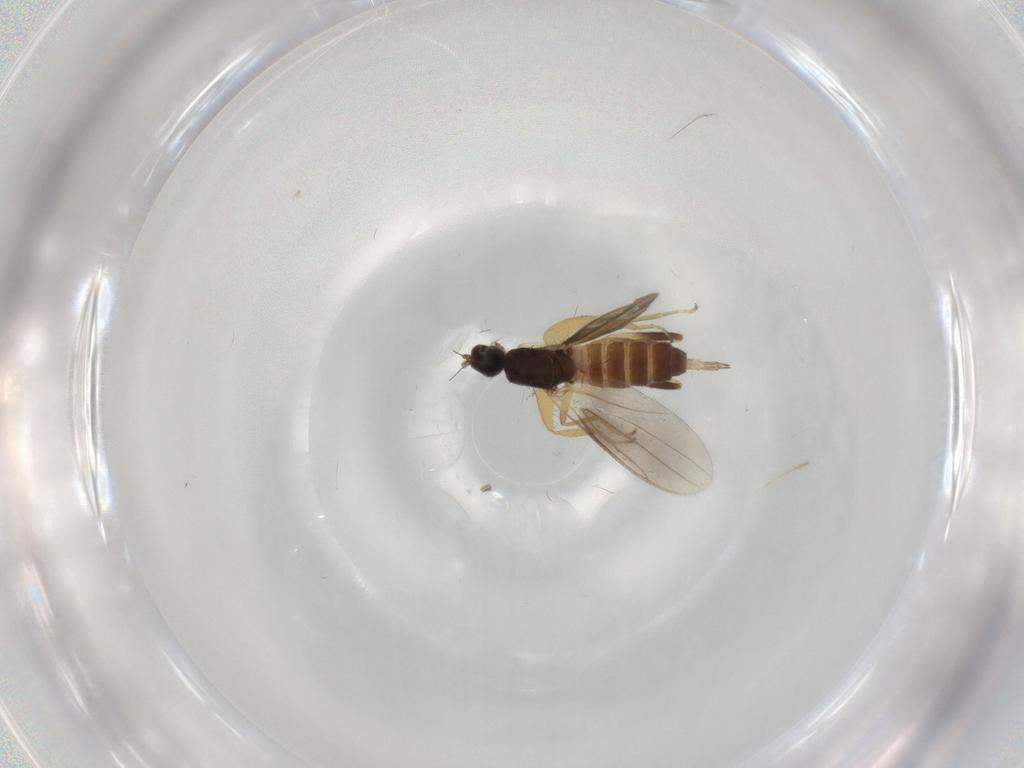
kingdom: Animalia
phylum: Arthropoda
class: Insecta
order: Diptera
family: Hybotidae
